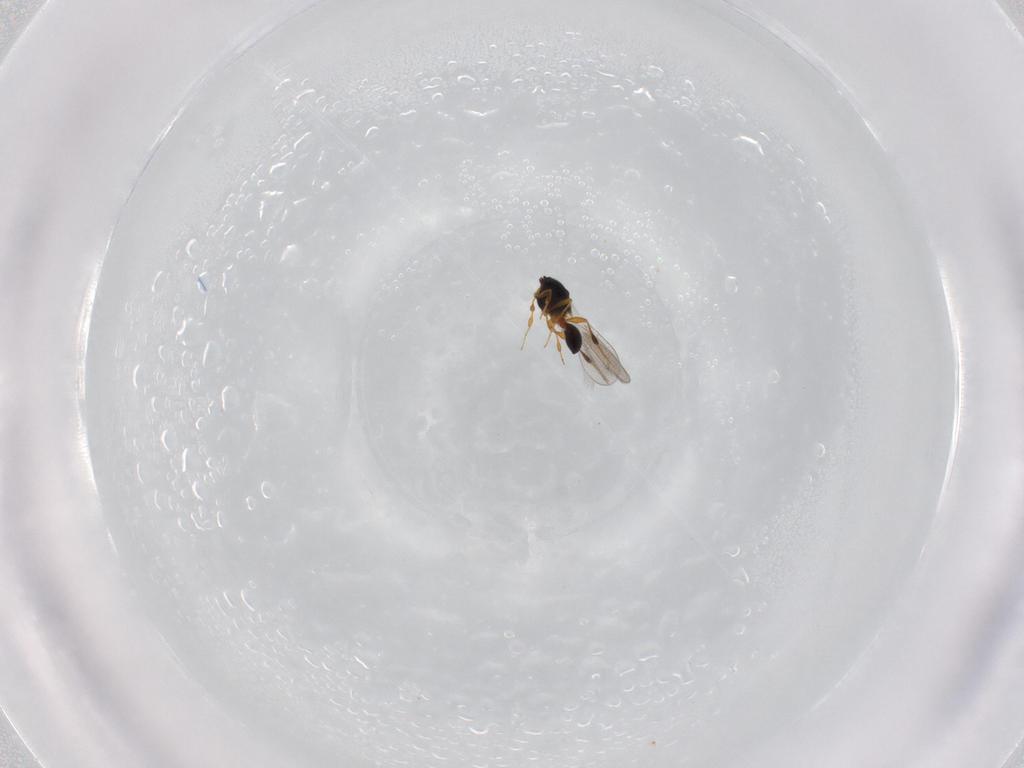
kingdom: Animalia
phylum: Arthropoda
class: Insecta
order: Hymenoptera
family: Platygastridae
